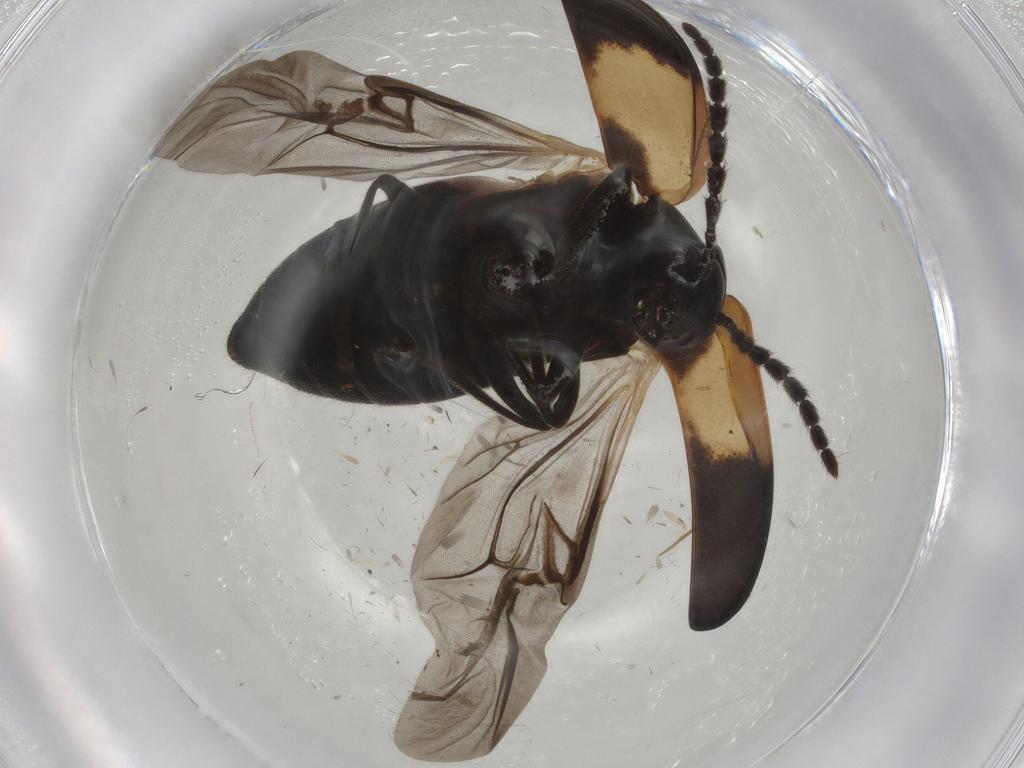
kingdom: Animalia
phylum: Arthropoda
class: Insecta
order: Coleoptera
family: Chrysomelidae
